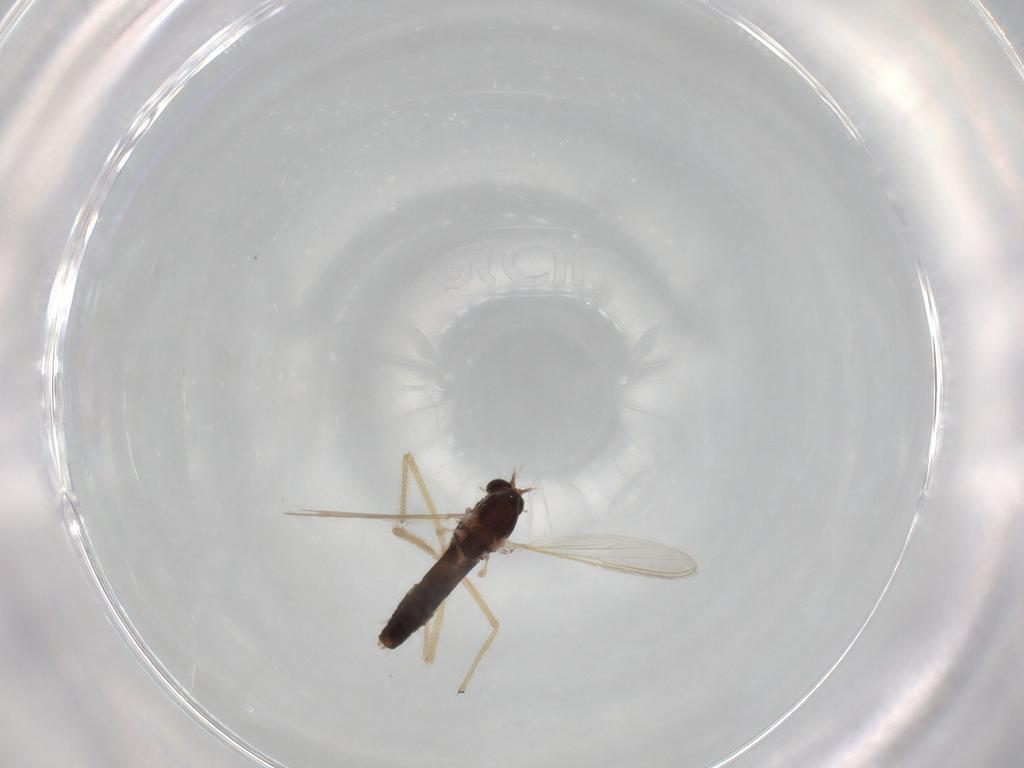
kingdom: Animalia
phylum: Arthropoda
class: Insecta
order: Diptera
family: Chironomidae
